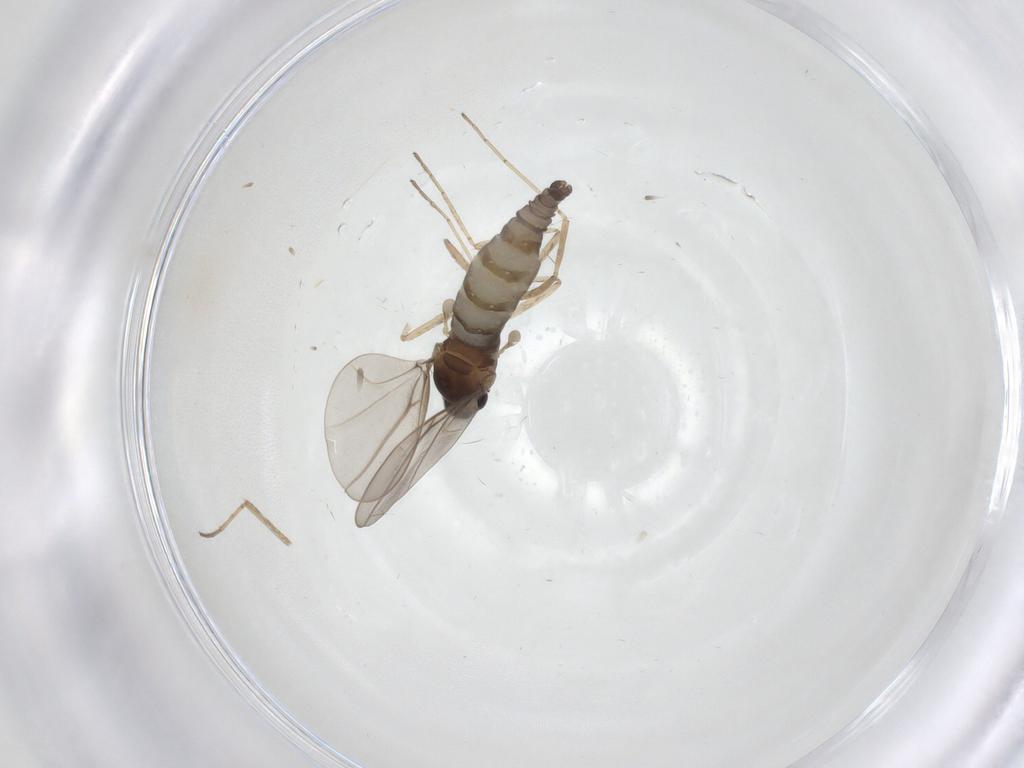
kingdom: Animalia
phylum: Arthropoda
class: Insecta
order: Diptera
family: Cecidomyiidae
